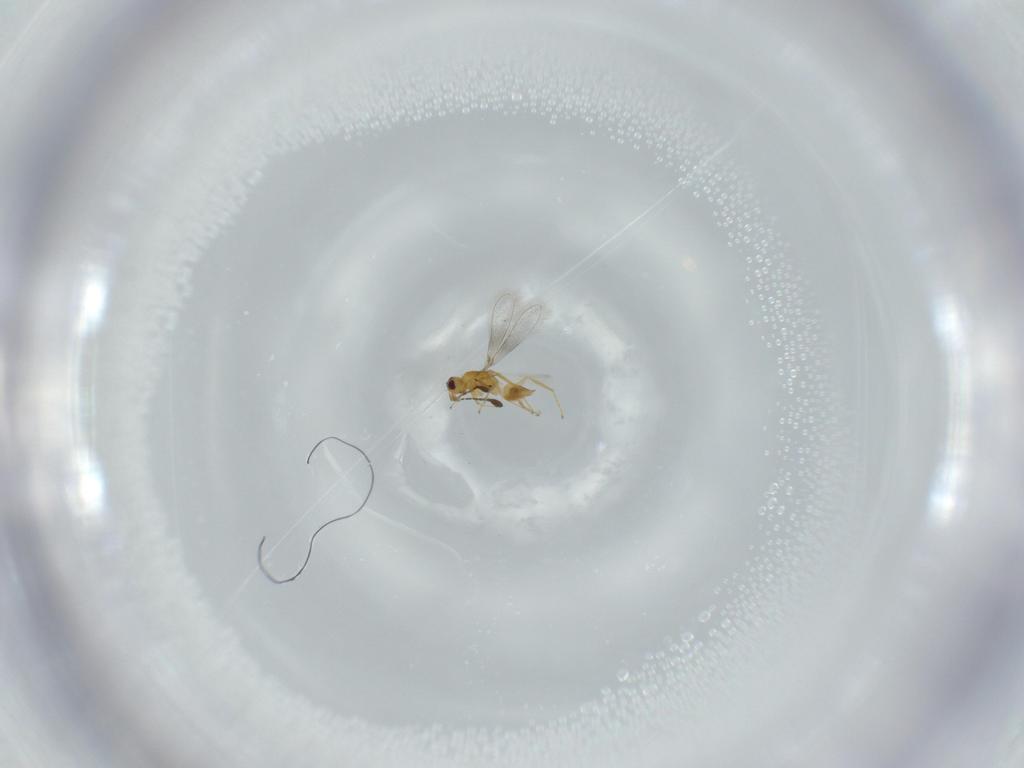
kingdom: Animalia
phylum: Arthropoda
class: Insecta
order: Hymenoptera
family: Mymaridae
